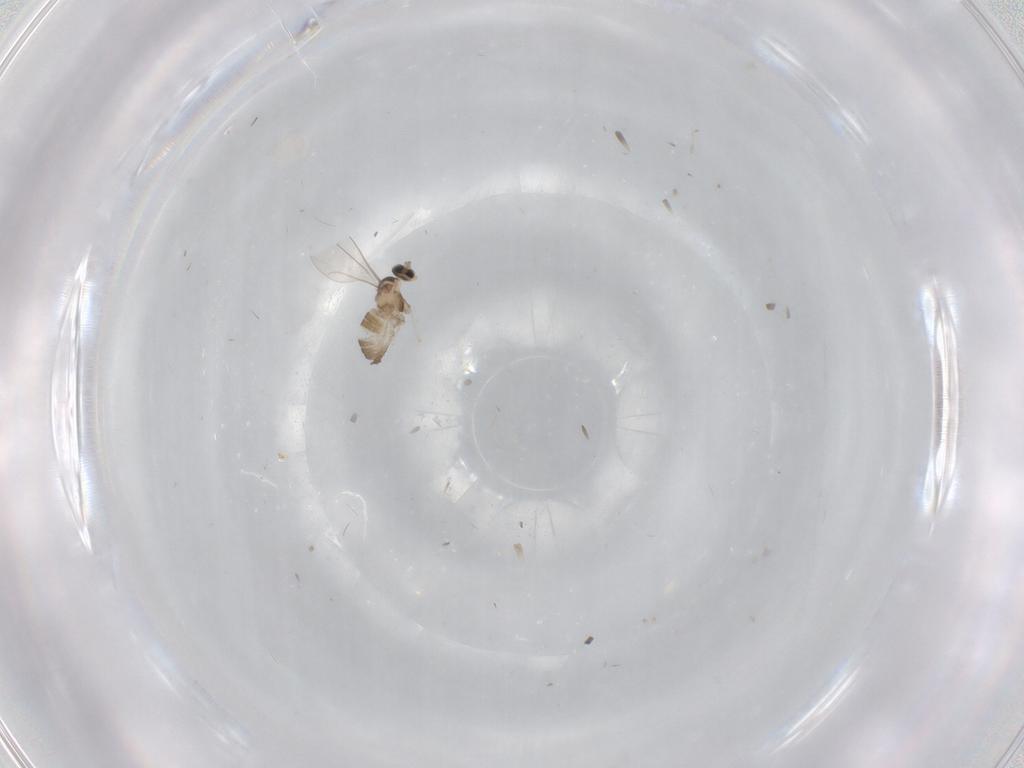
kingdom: Animalia
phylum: Arthropoda
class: Insecta
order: Diptera
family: Cecidomyiidae
